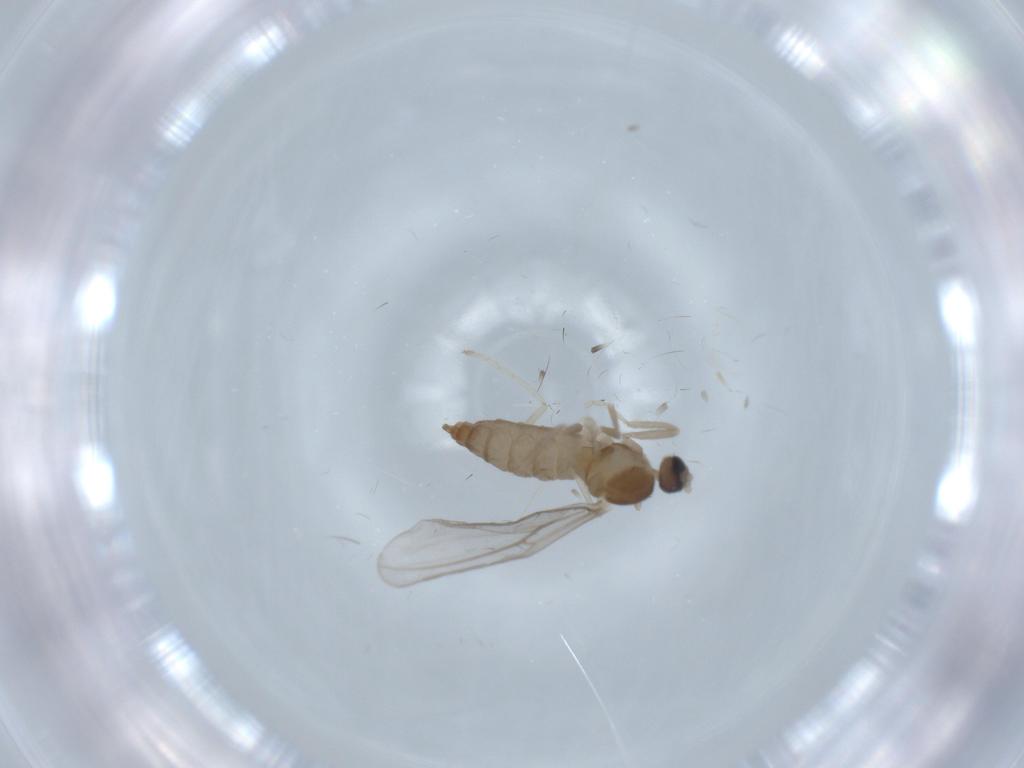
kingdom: Animalia
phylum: Arthropoda
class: Insecta
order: Diptera
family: Cecidomyiidae
